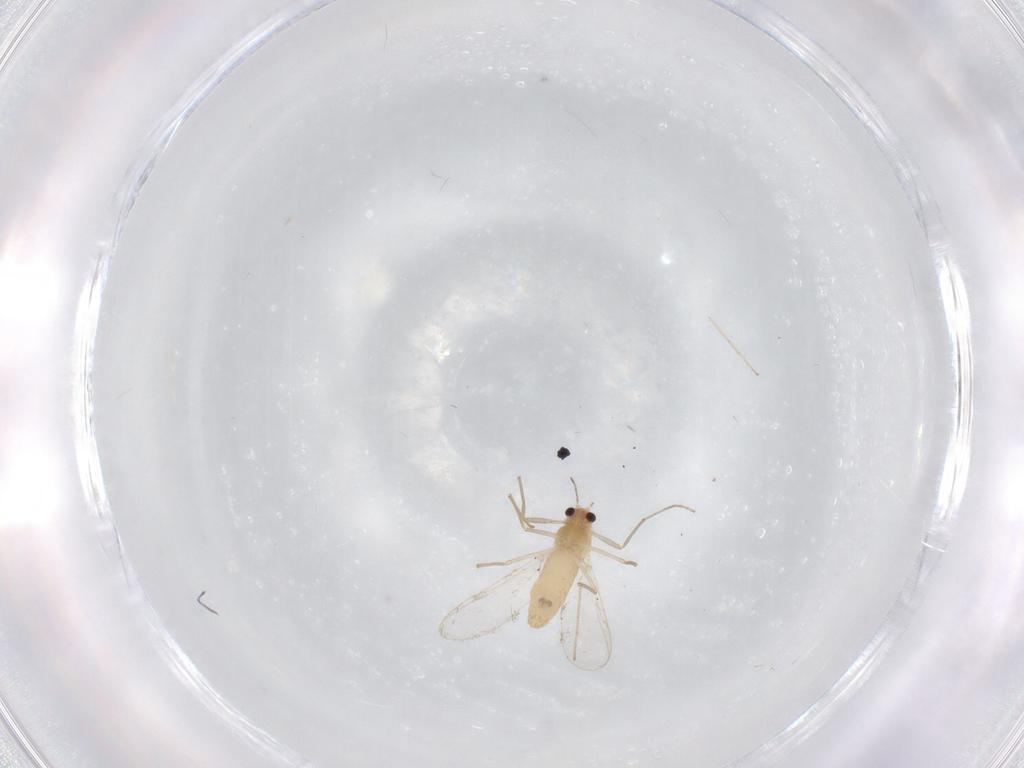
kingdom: Animalia
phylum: Arthropoda
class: Insecta
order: Diptera
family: Chironomidae
